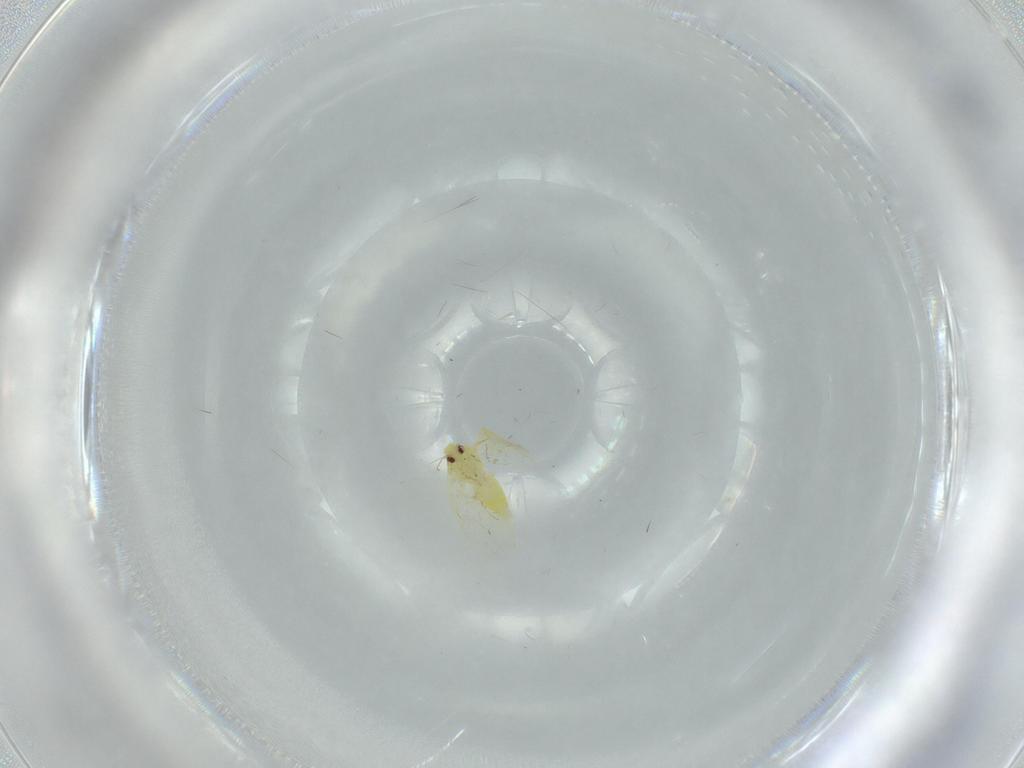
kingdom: Animalia
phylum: Arthropoda
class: Insecta
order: Hemiptera
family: Aleyrodidae
